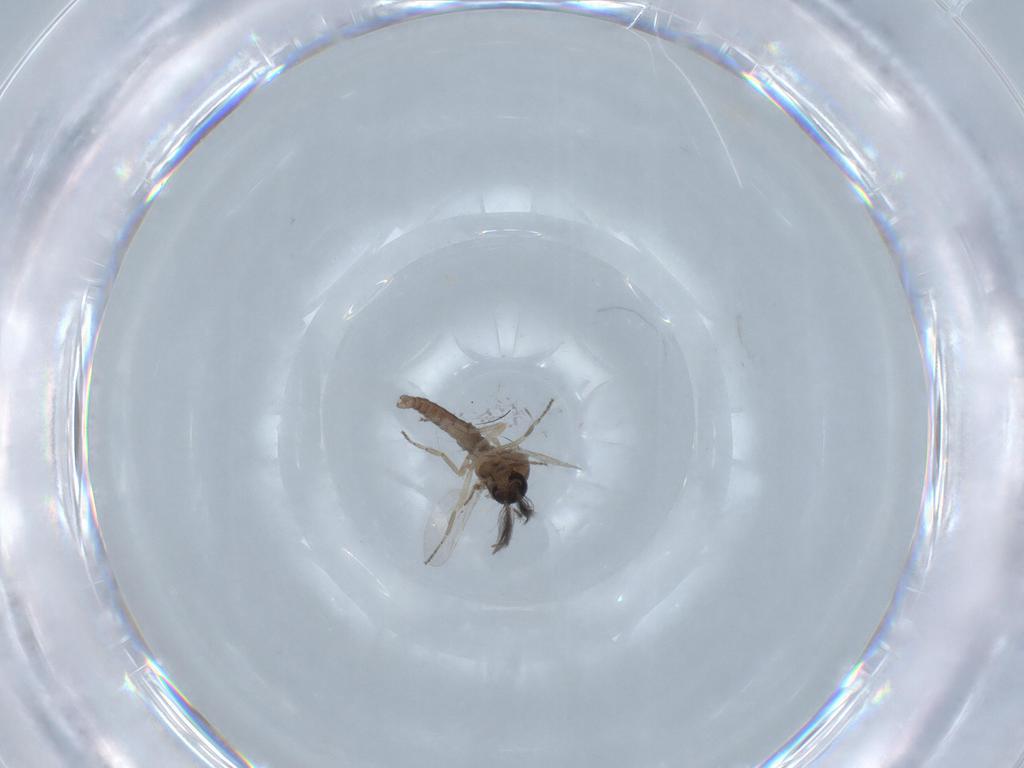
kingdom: Animalia
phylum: Arthropoda
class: Insecta
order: Diptera
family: Ceratopogonidae
